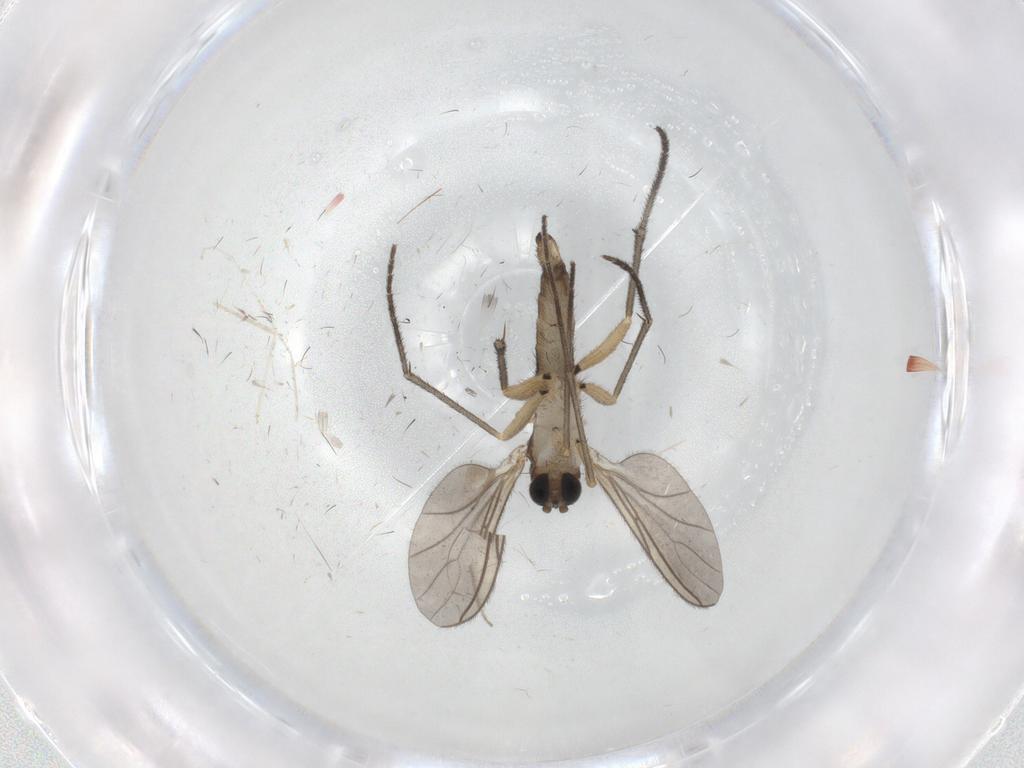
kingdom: Animalia
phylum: Arthropoda
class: Insecta
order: Diptera
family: Sciaridae
